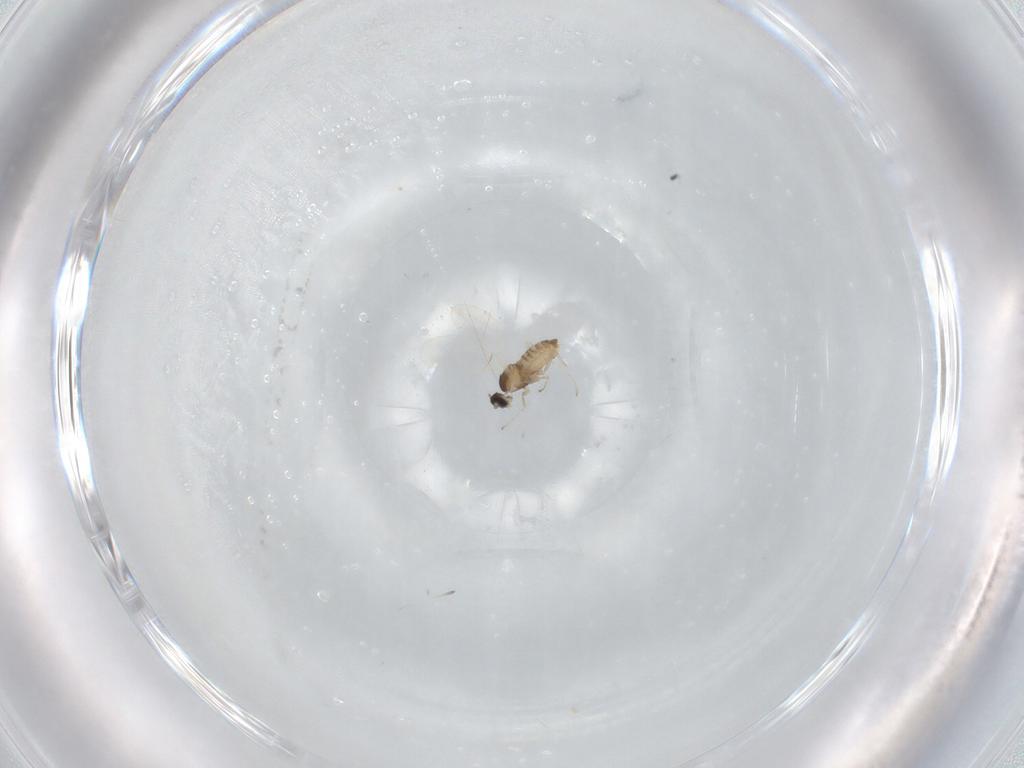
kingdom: Animalia
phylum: Arthropoda
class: Insecta
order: Diptera
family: Cecidomyiidae
